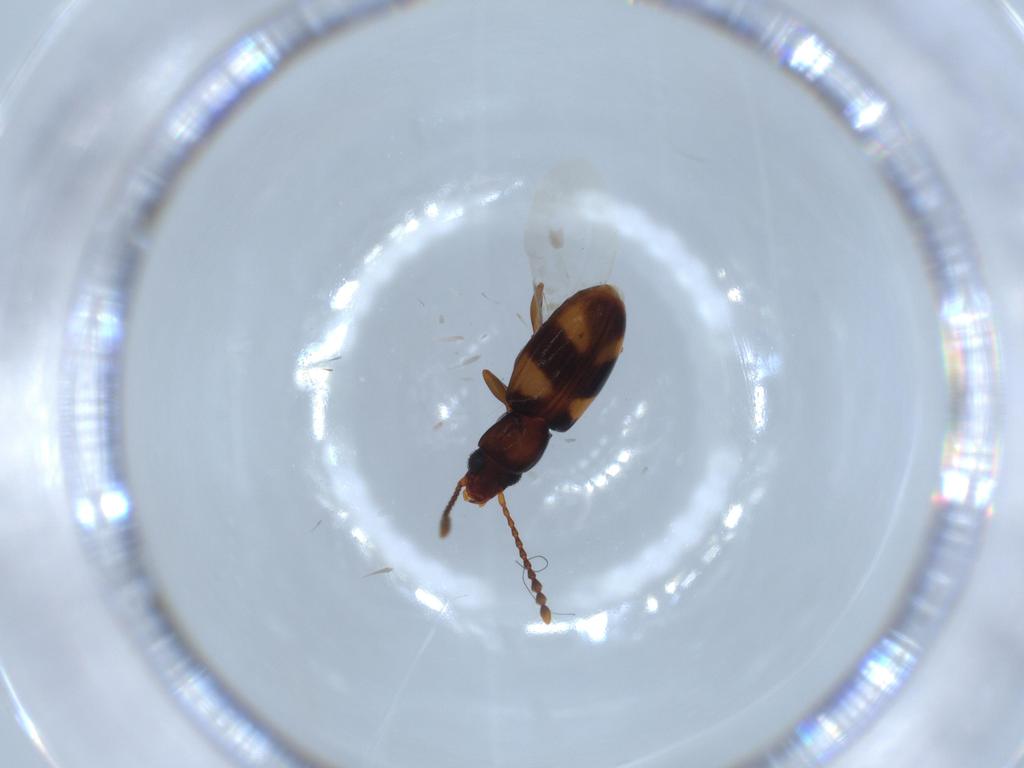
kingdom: Animalia
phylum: Arthropoda
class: Insecta
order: Coleoptera
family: Laemophloeidae
